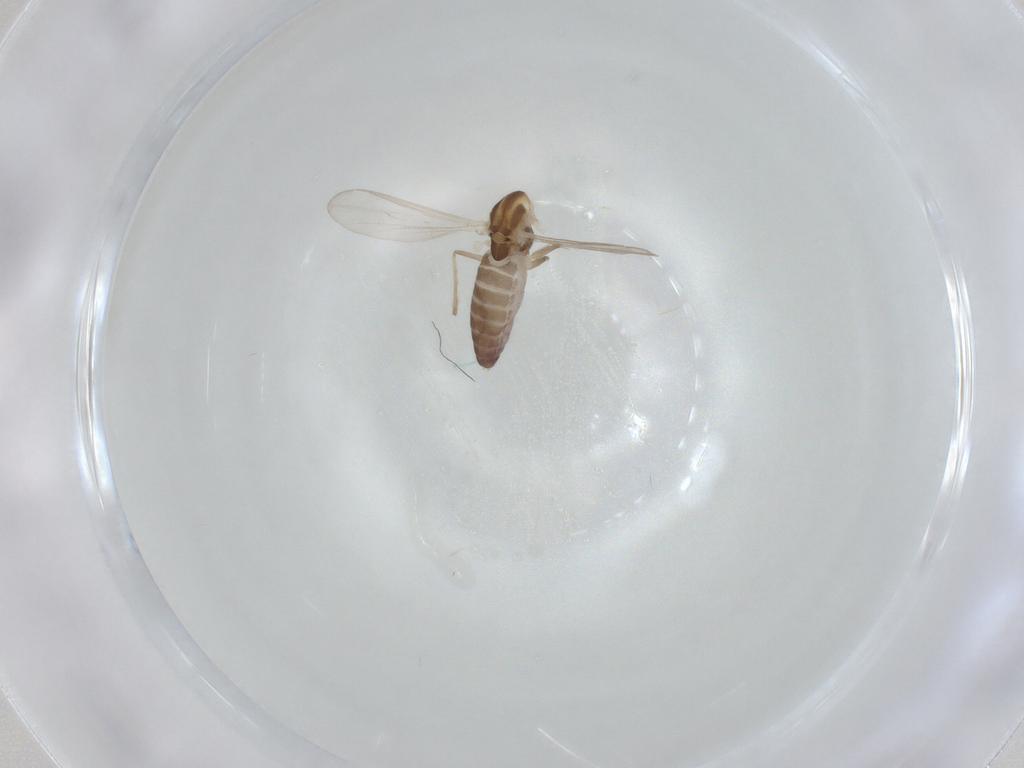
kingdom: Animalia
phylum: Arthropoda
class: Insecta
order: Diptera
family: Chironomidae
